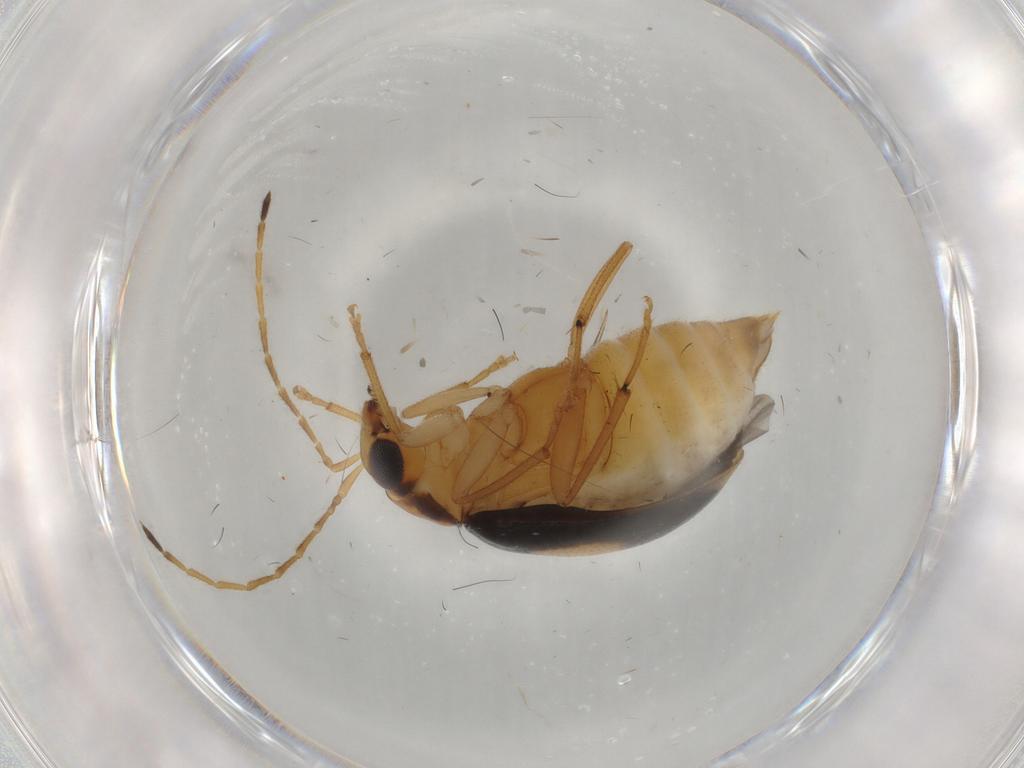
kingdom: Animalia
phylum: Arthropoda
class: Insecta
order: Coleoptera
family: Chrysomelidae
